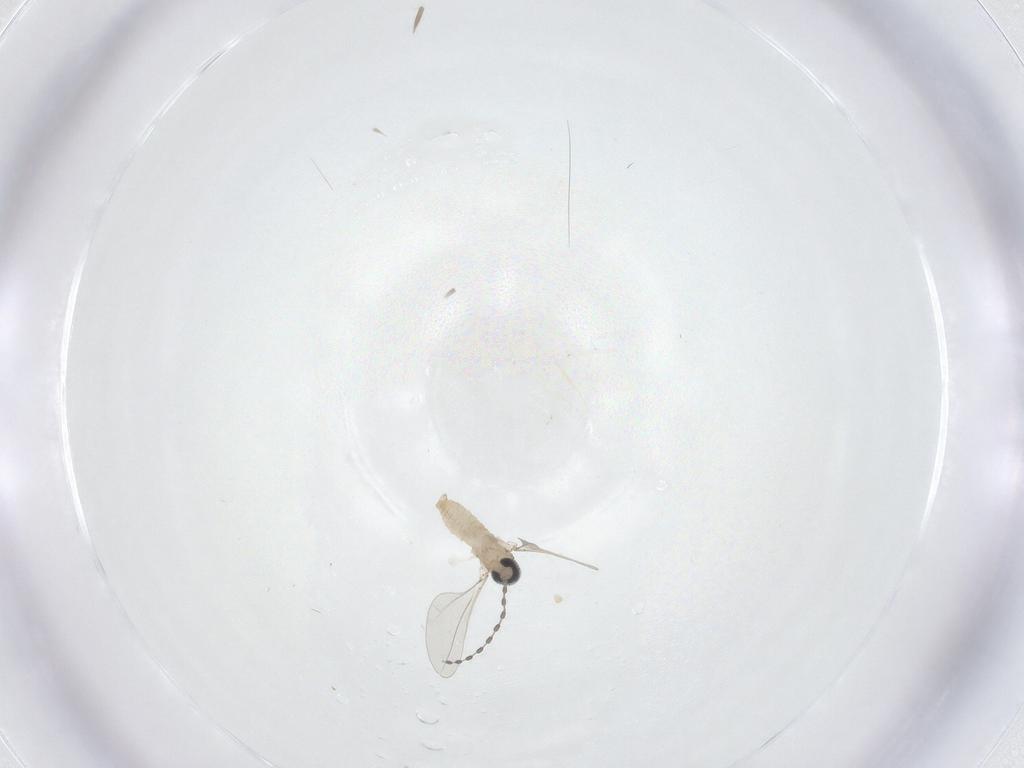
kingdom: Animalia
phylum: Arthropoda
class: Insecta
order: Diptera
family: Cecidomyiidae
